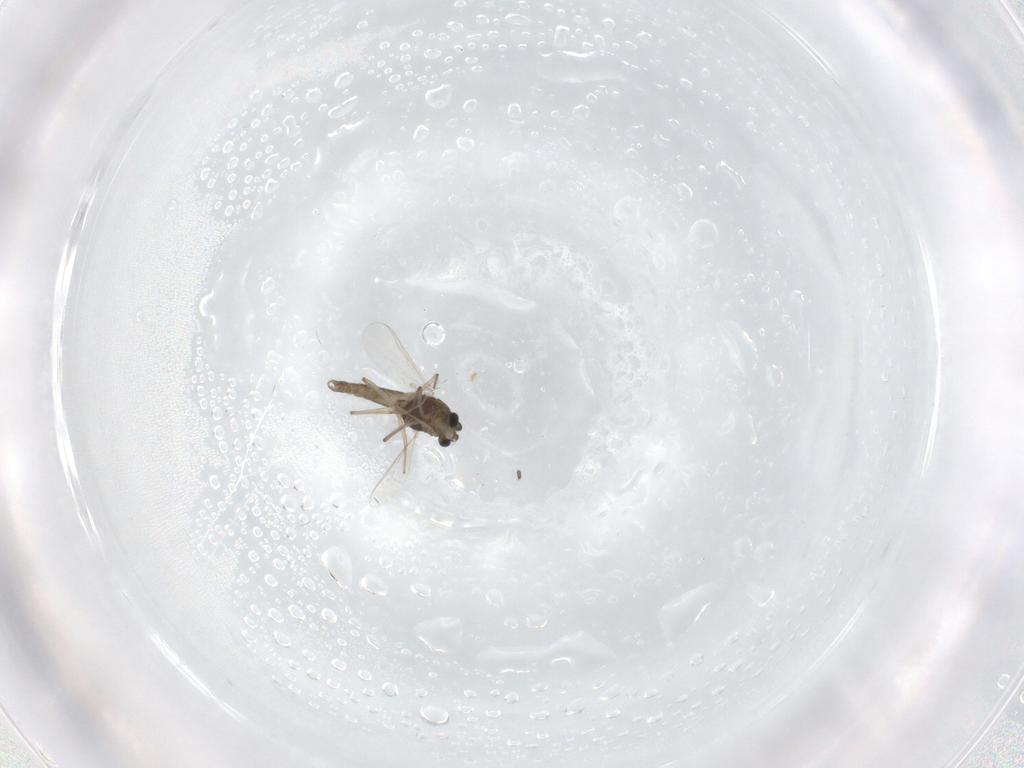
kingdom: Animalia
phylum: Arthropoda
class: Insecta
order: Diptera
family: Chironomidae
